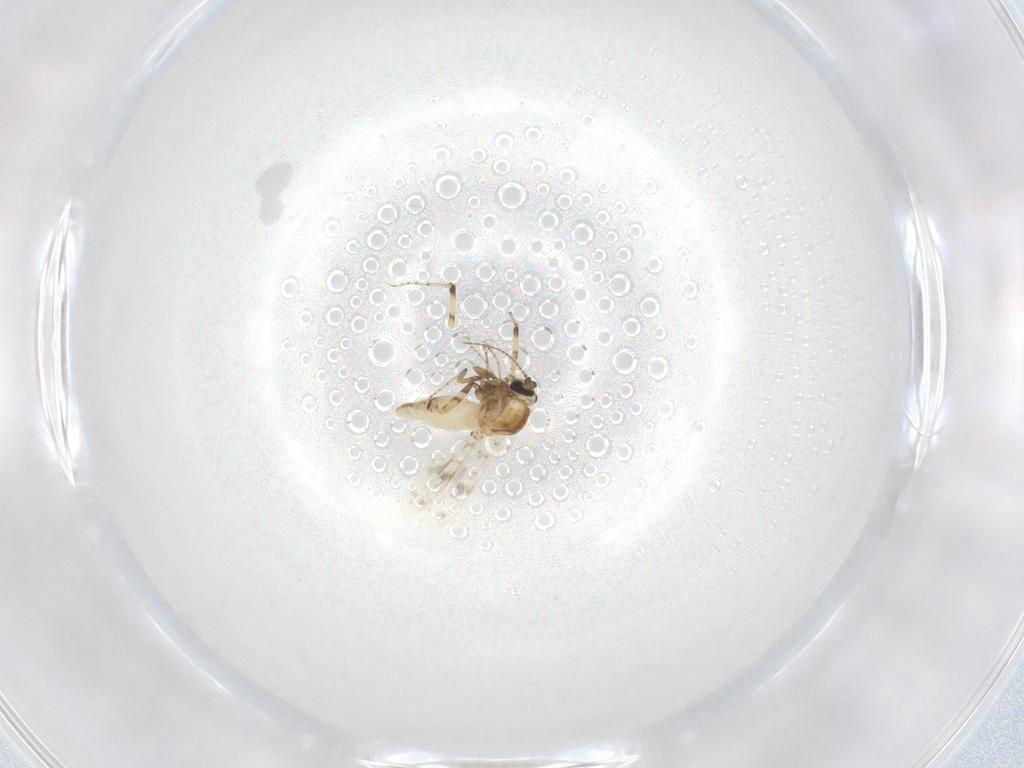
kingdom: Animalia
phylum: Arthropoda
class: Insecta
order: Diptera
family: Ceratopogonidae
